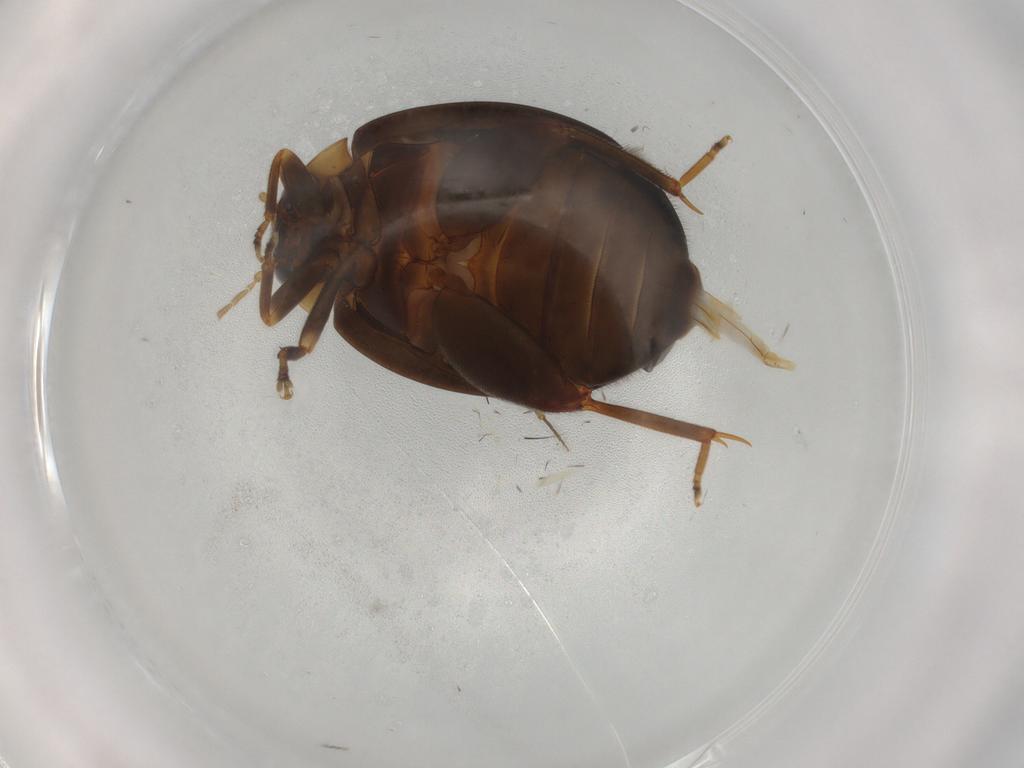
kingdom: Animalia
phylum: Arthropoda
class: Insecta
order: Coleoptera
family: Scirtidae
